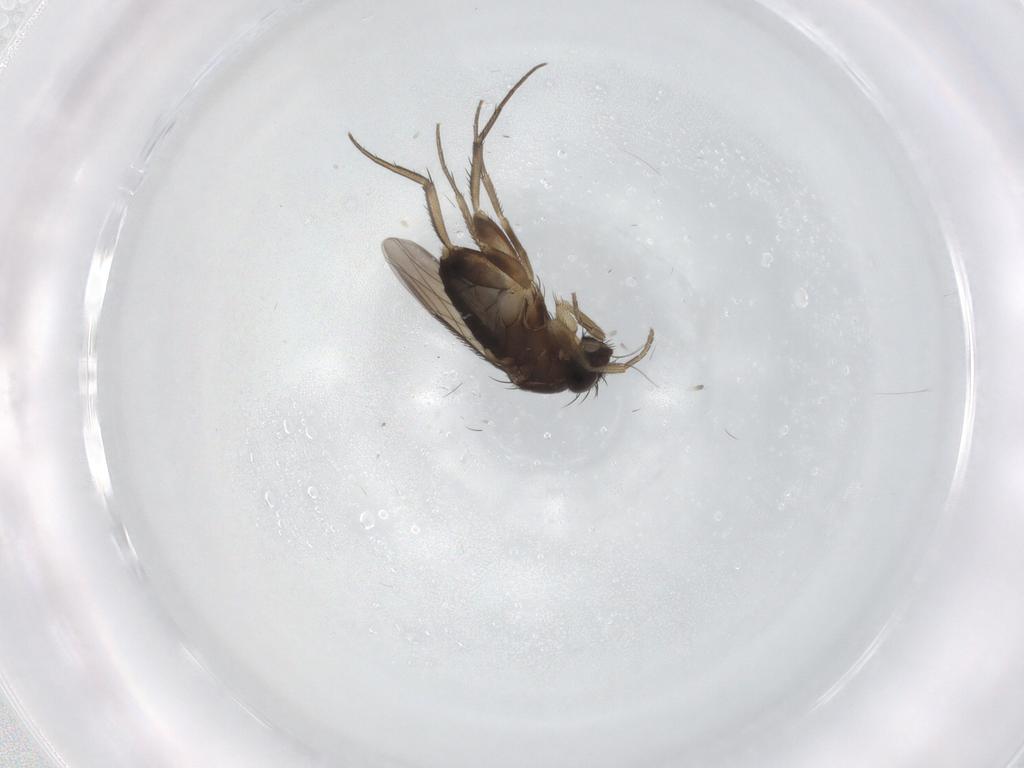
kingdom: Animalia
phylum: Arthropoda
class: Insecta
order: Diptera
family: Phoridae
